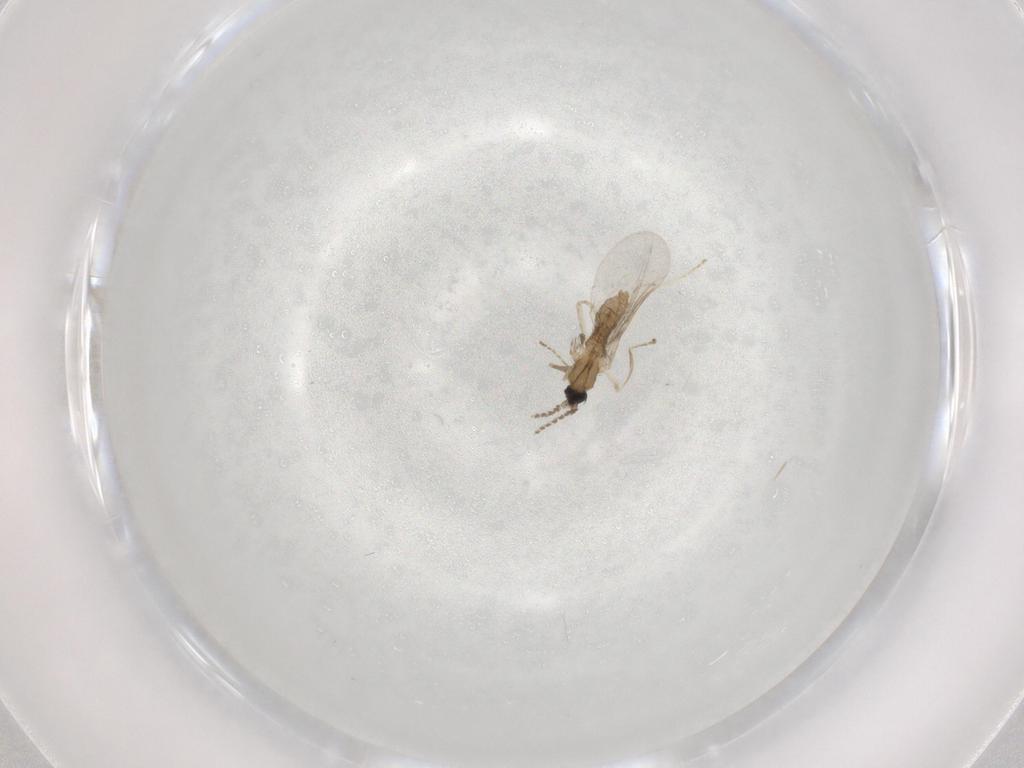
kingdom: Animalia
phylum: Arthropoda
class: Insecta
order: Diptera
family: Cecidomyiidae
